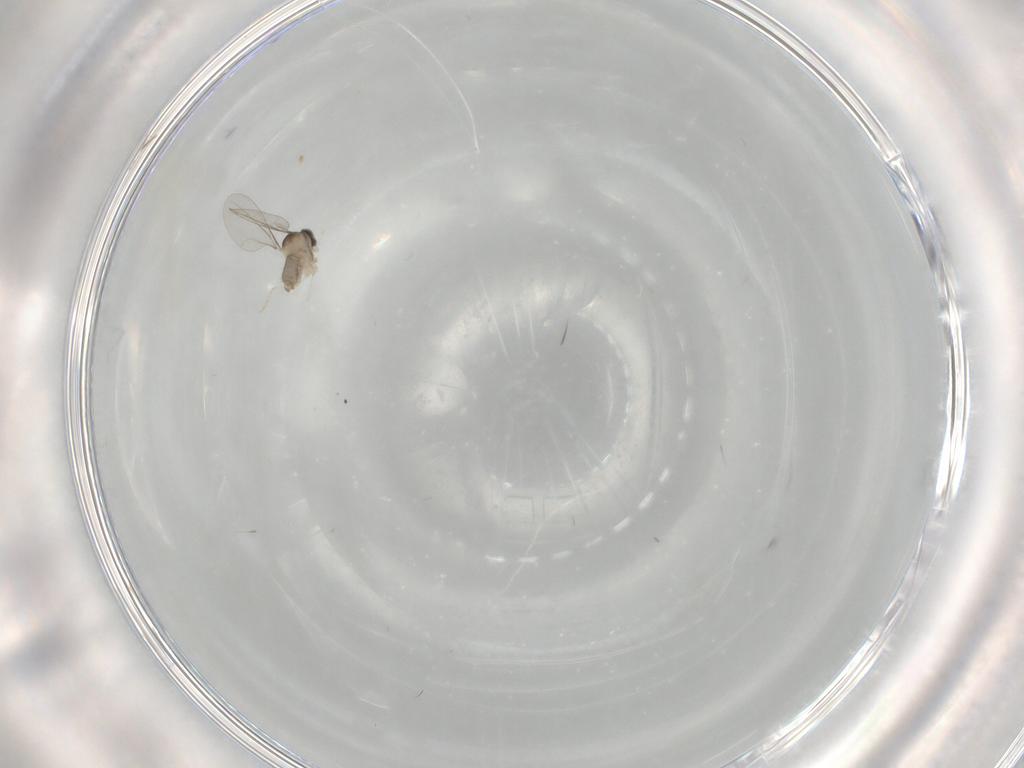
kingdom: Animalia
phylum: Arthropoda
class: Insecta
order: Diptera
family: Cecidomyiidae
